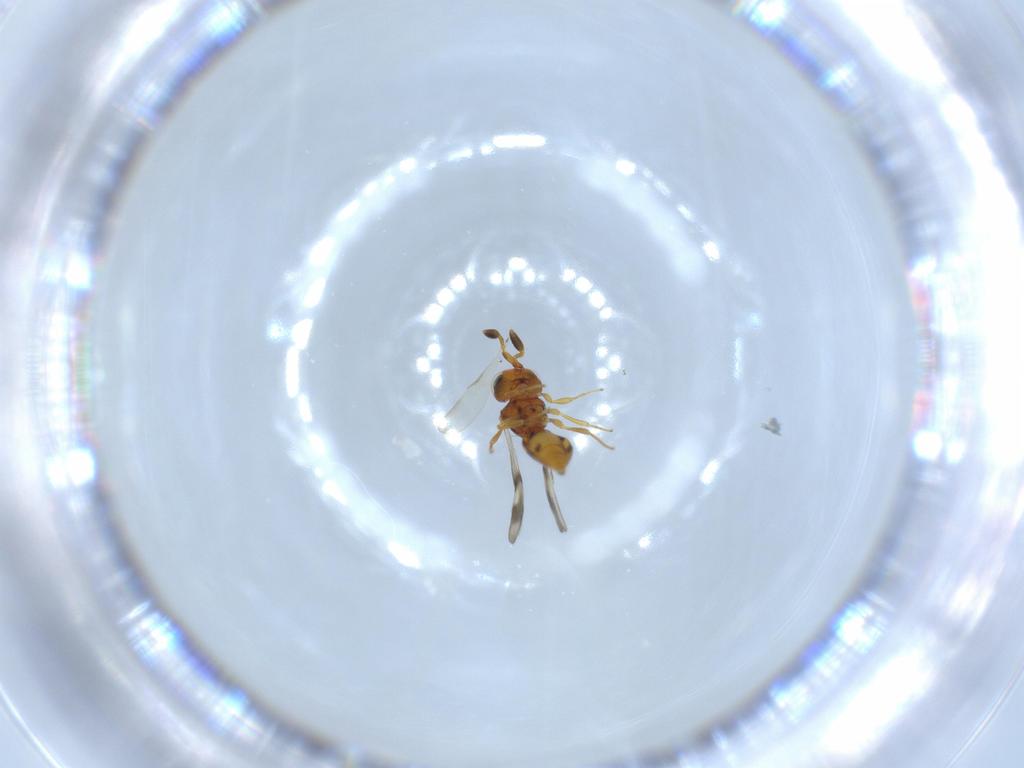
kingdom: Animalia
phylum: Arthropoda
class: Insecta
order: Hymenoptera
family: Scelionidae
